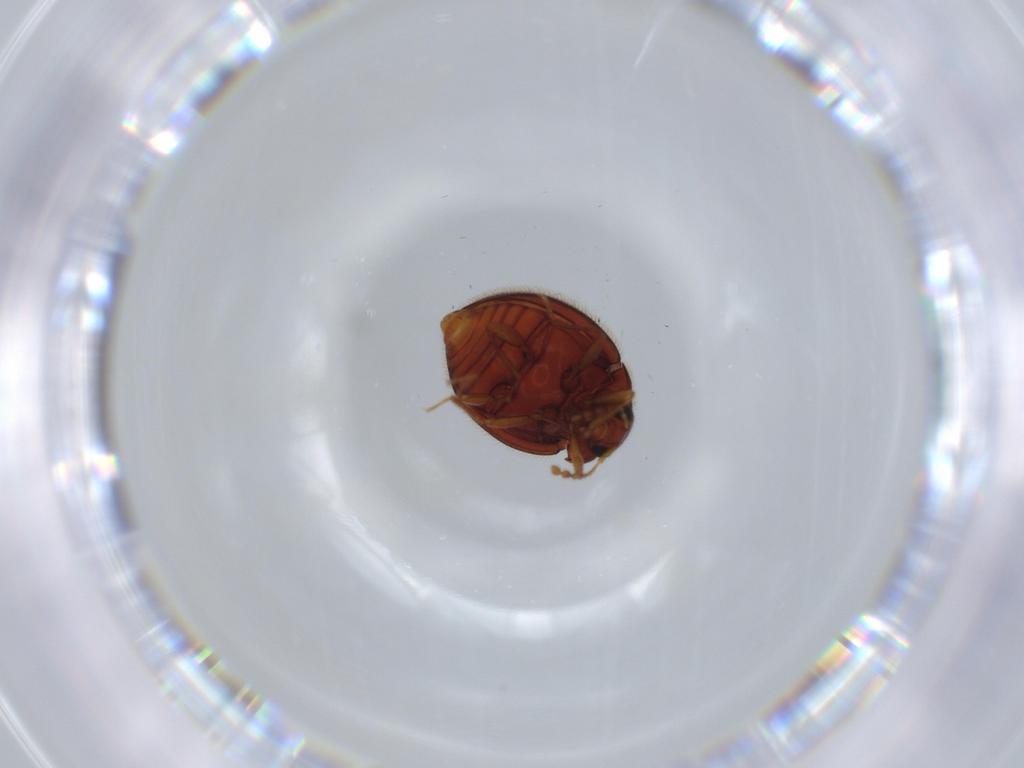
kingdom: Animalia
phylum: Arthropoda
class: Insecta
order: Coleoptera
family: Anamorphidae
